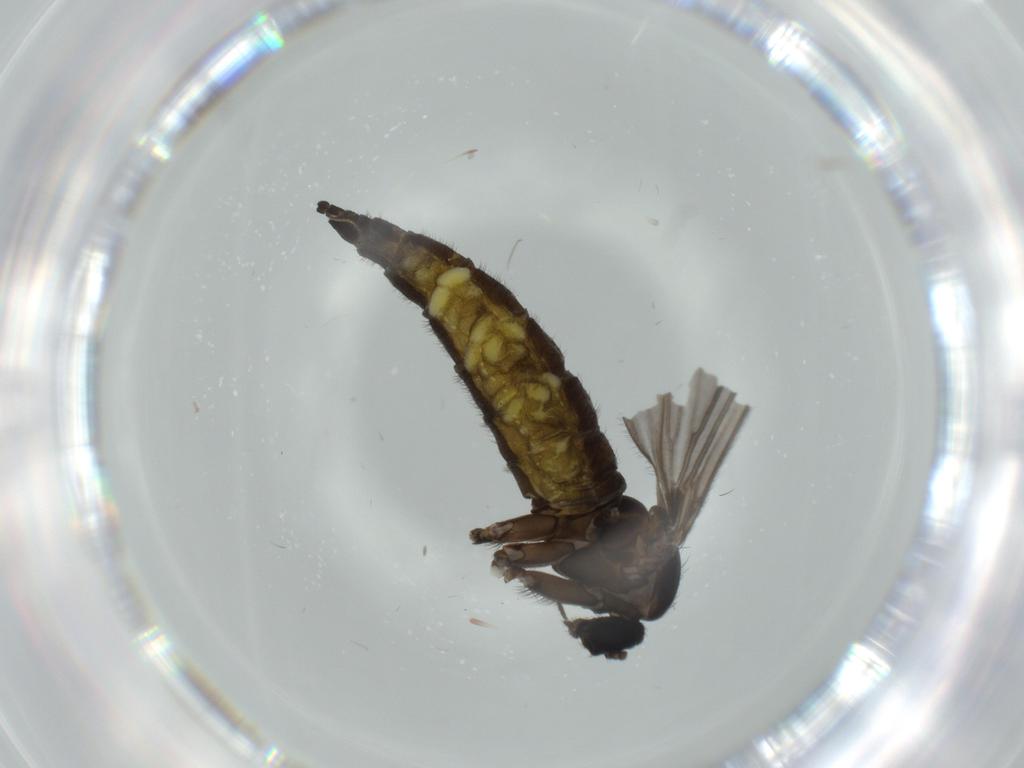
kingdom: Animalia
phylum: Arthropoda
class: Insecta
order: Diptera
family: Sciaridae
